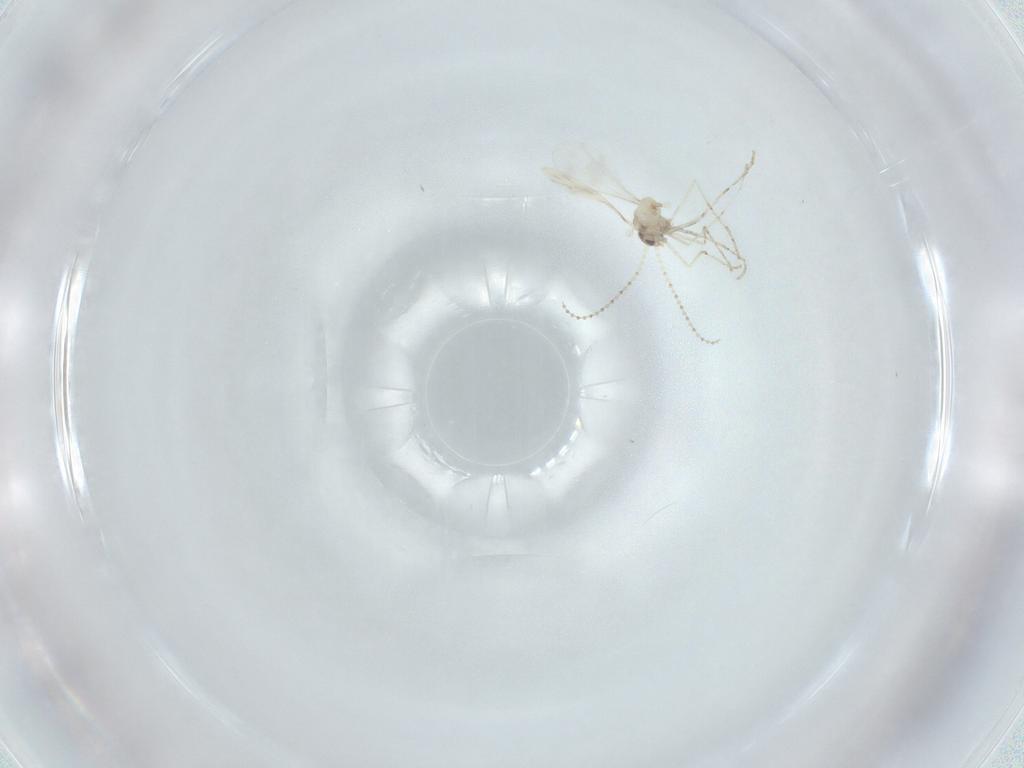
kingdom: Animalia
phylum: Arthropoda
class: Insecta
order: Diptera
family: Cecidomyiidae
